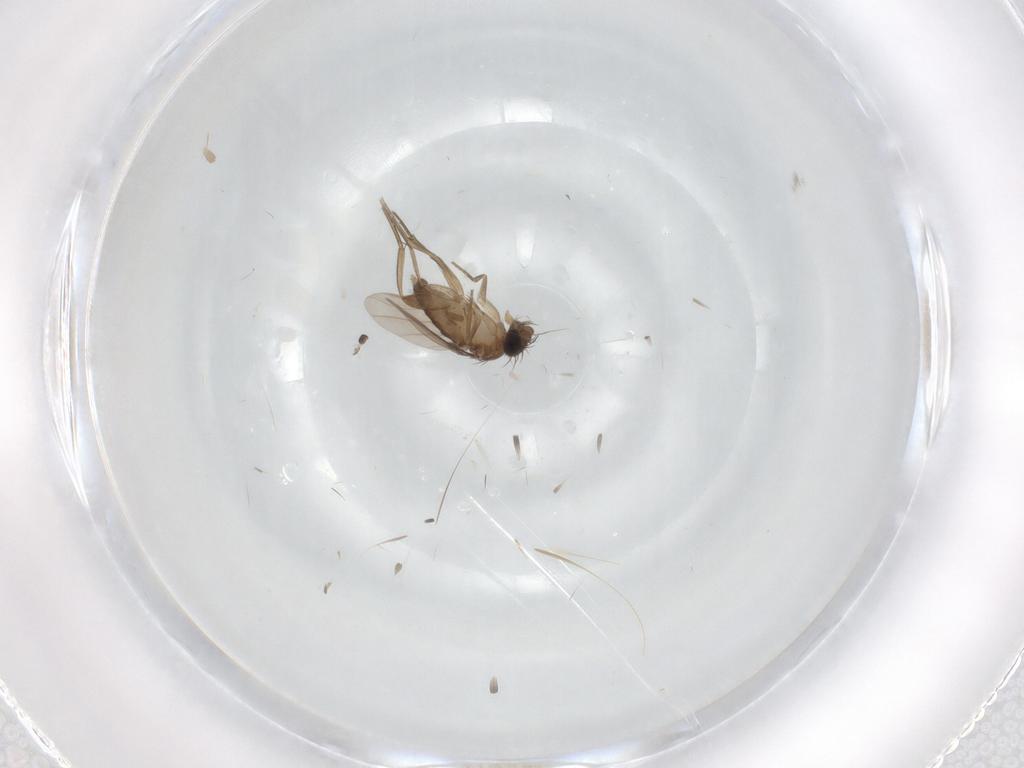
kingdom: Animalia
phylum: Arthropoda
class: Insecta
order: Diptera
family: Phoridae
